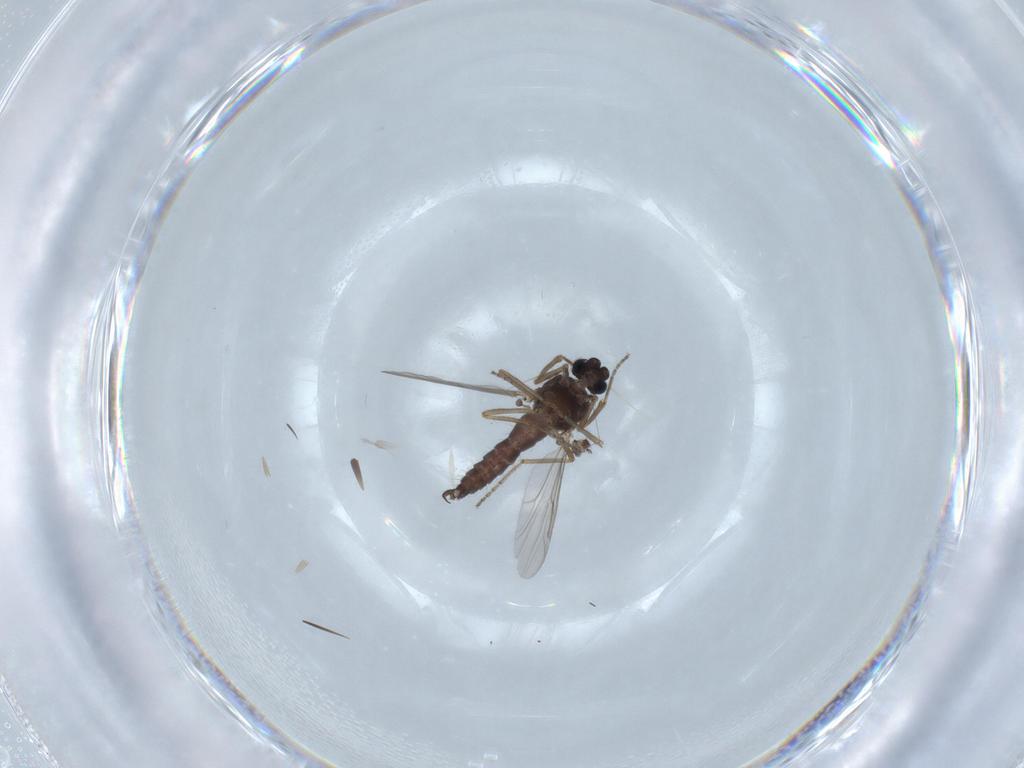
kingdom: Animalia
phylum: Arthropoda
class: Insecta
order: Diptera
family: Ceratopogonidae
